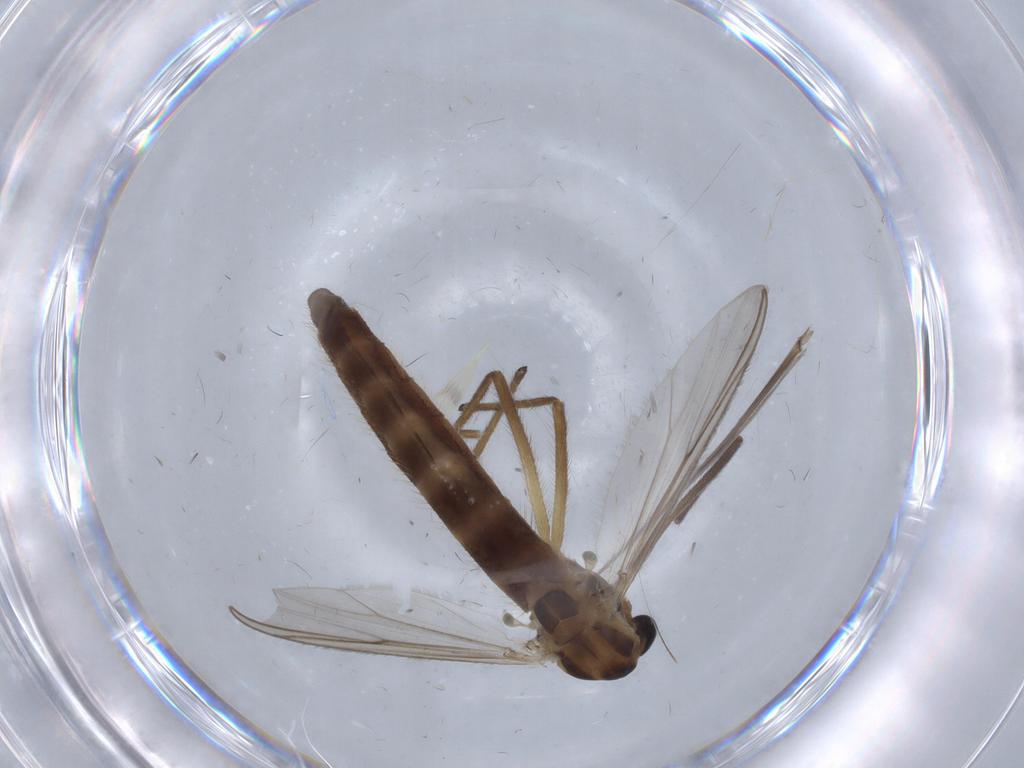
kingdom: Animalia
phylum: Arthropoda
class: Insecta
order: Diptera
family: Chironomidae
